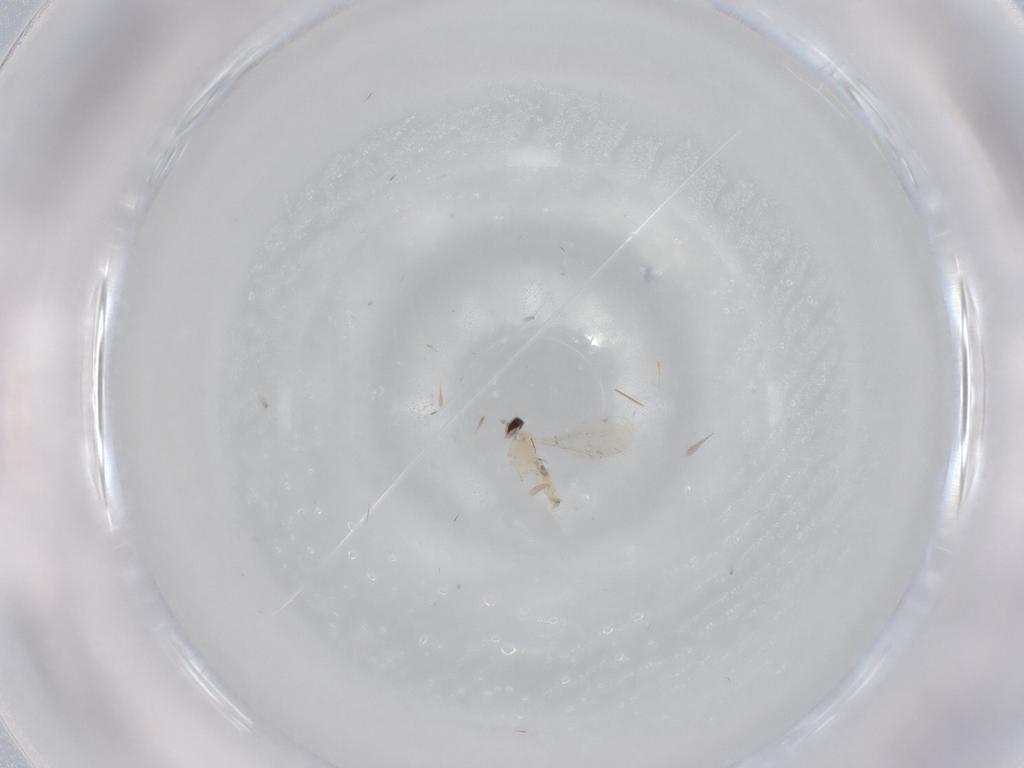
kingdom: Animalia
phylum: Arthropoda
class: Insecta
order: Diptera
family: Cecidomyiidae
